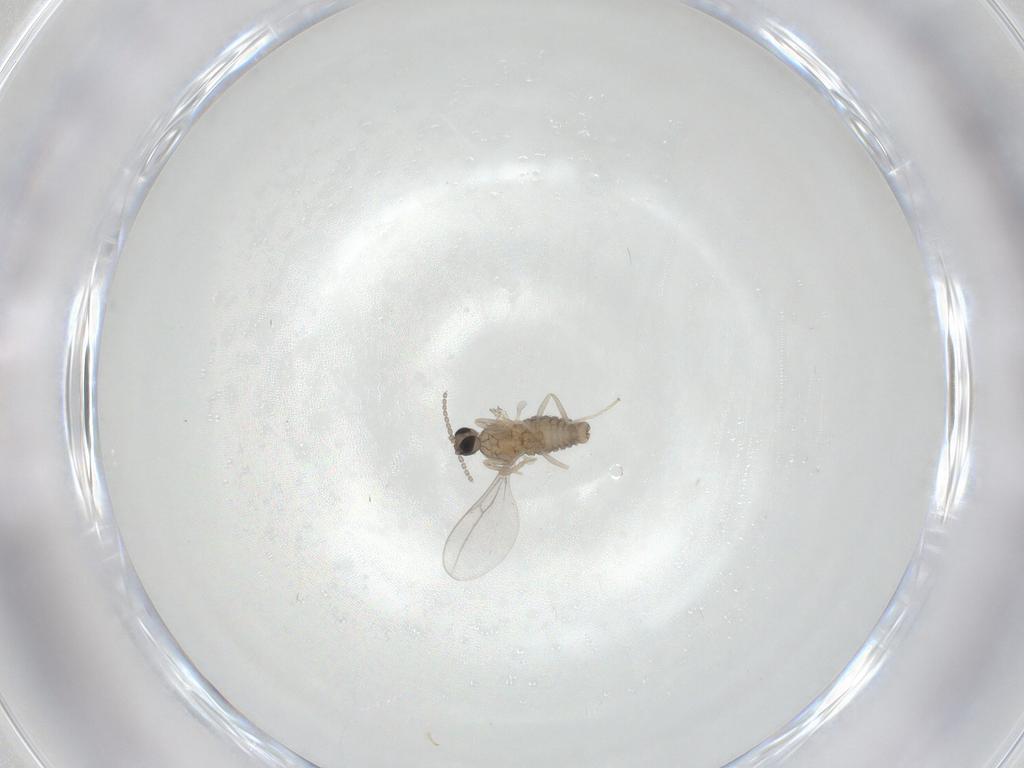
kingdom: Animalia
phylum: Arthropoda
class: Insecta
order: Diptera
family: Cecidomyiidae
